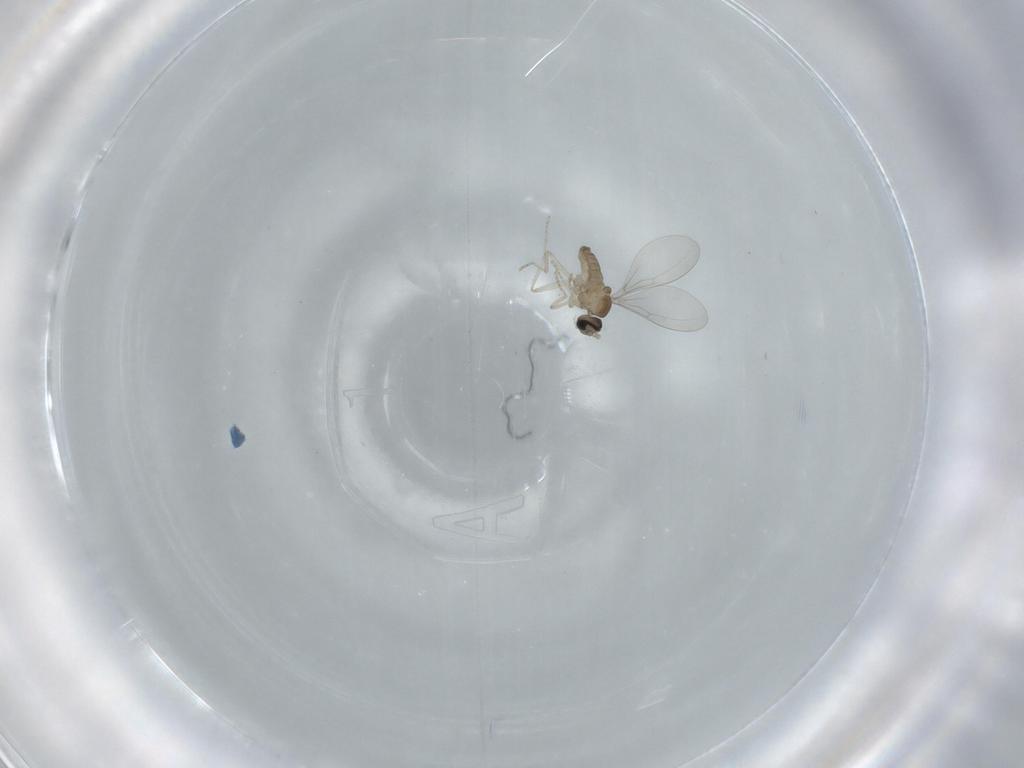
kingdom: Animalia
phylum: Arthropoda
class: Insecta
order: Diptera
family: Cecidomyiidae
